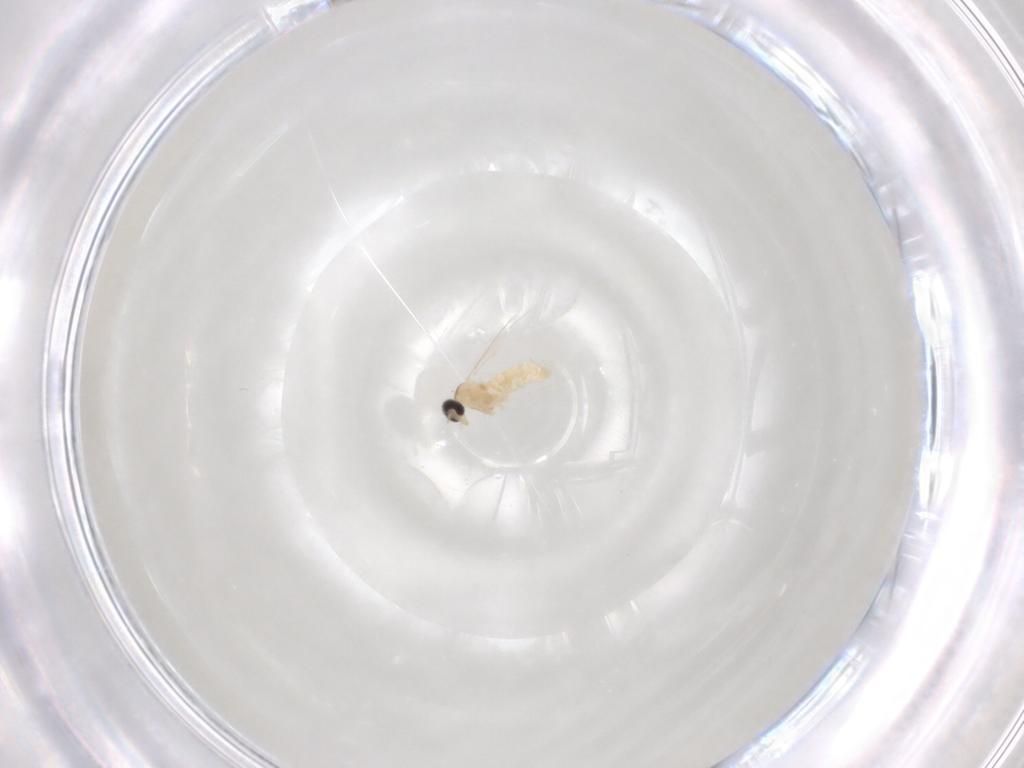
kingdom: Animalia
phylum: Arthropoda
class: Insecta
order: Diptera
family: Cecidomyiidae
